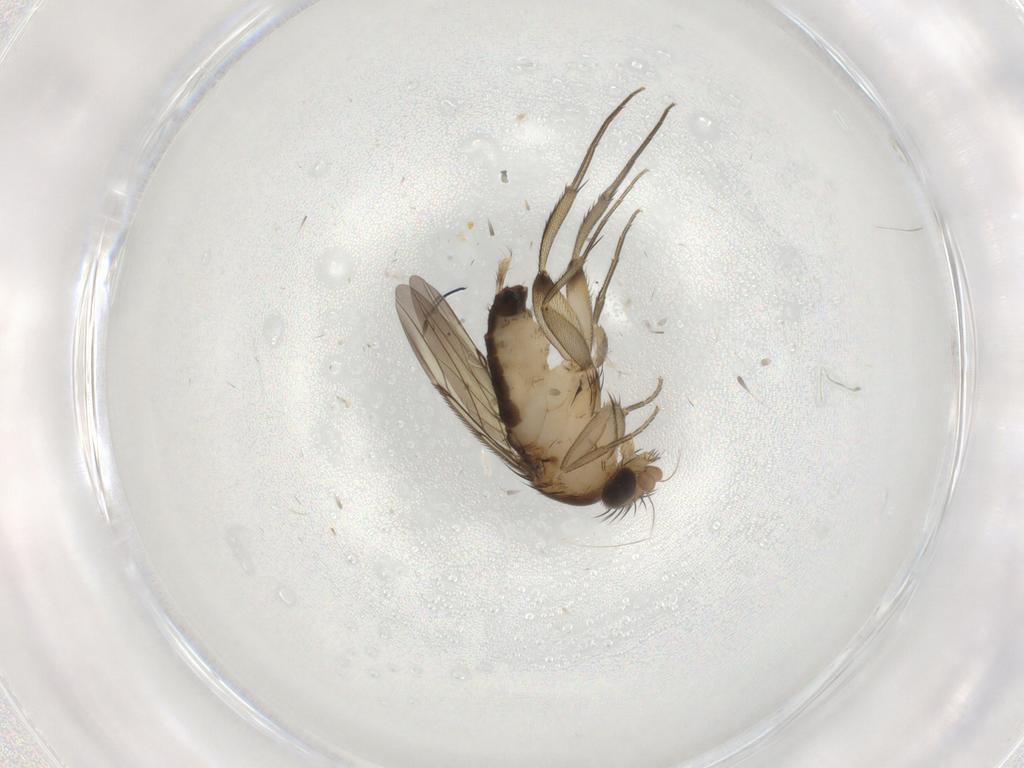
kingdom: Animalia
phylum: Arthropoda
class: Insecta
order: Diptera
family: Phoridae
